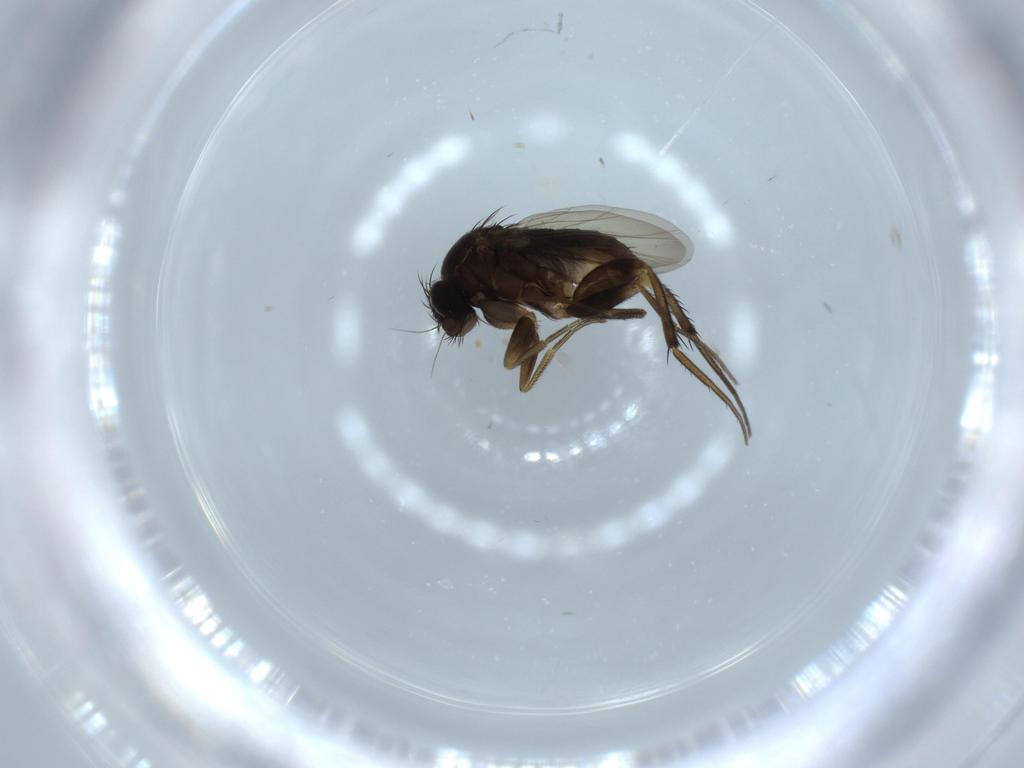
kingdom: Animalia
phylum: Arthropoda
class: Insecta
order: Diptera
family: Phoridae
